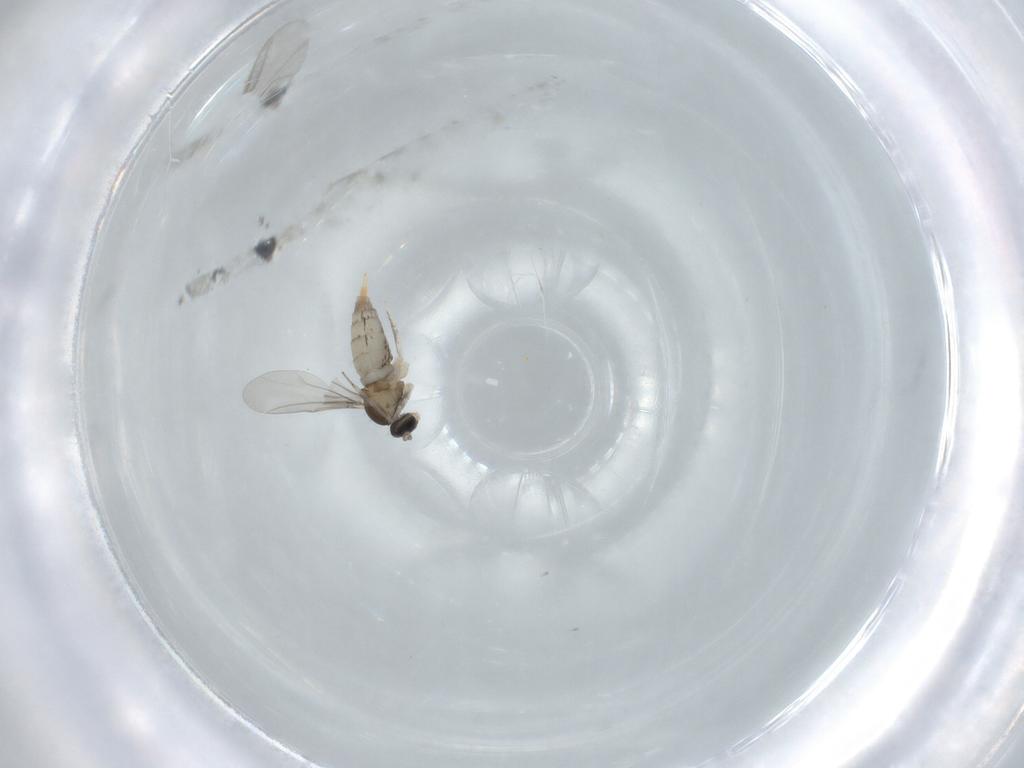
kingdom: Animalia
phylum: Arthropoda
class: Insecta
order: Diptera
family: Cecidomyiidae
